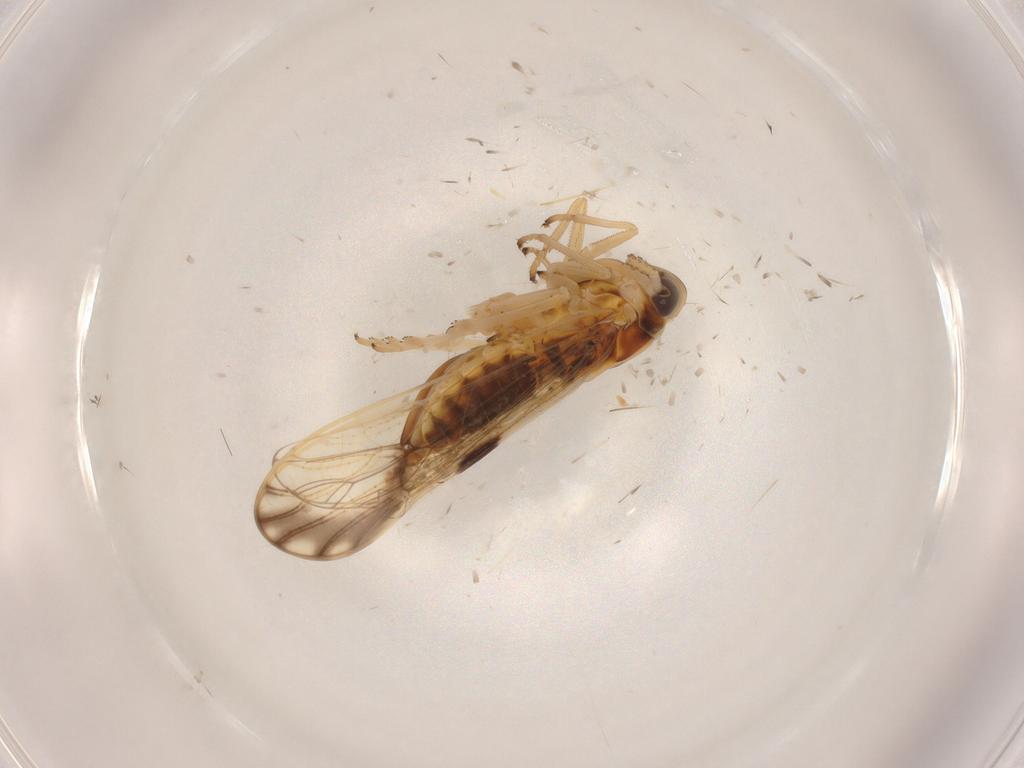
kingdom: Animalia
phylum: Arthropoda
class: Insecta
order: Hemiptera
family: Delphacidae
